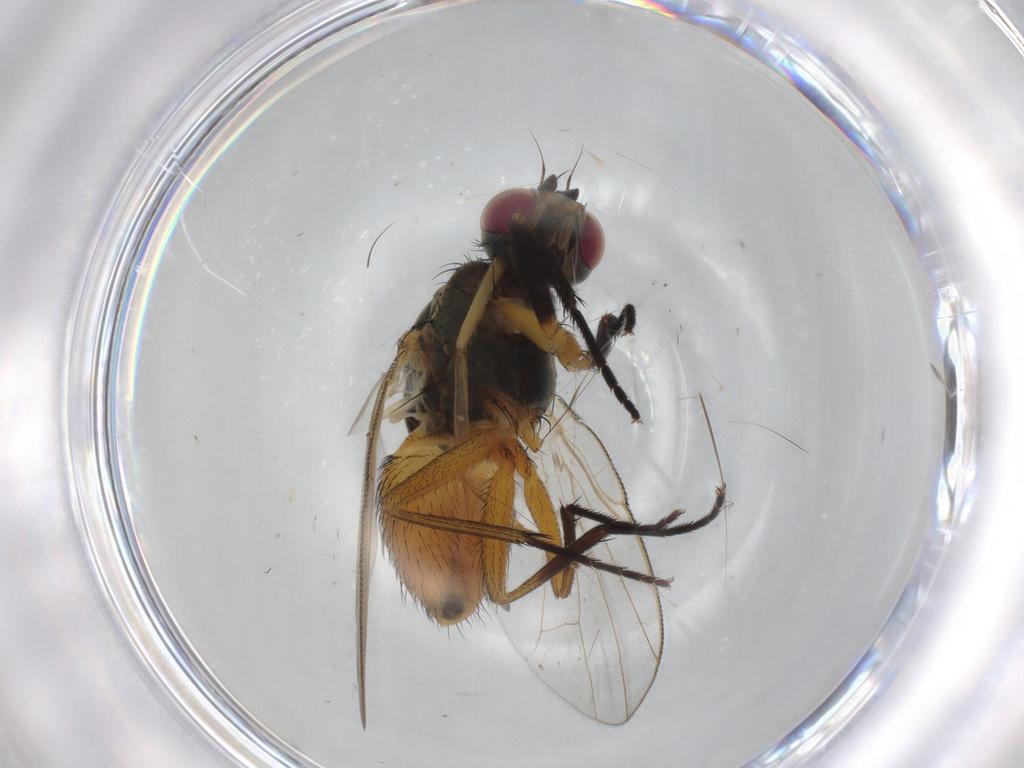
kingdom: Animalia
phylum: Arthropoda
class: Insecta
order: Diptera
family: Muscidae
